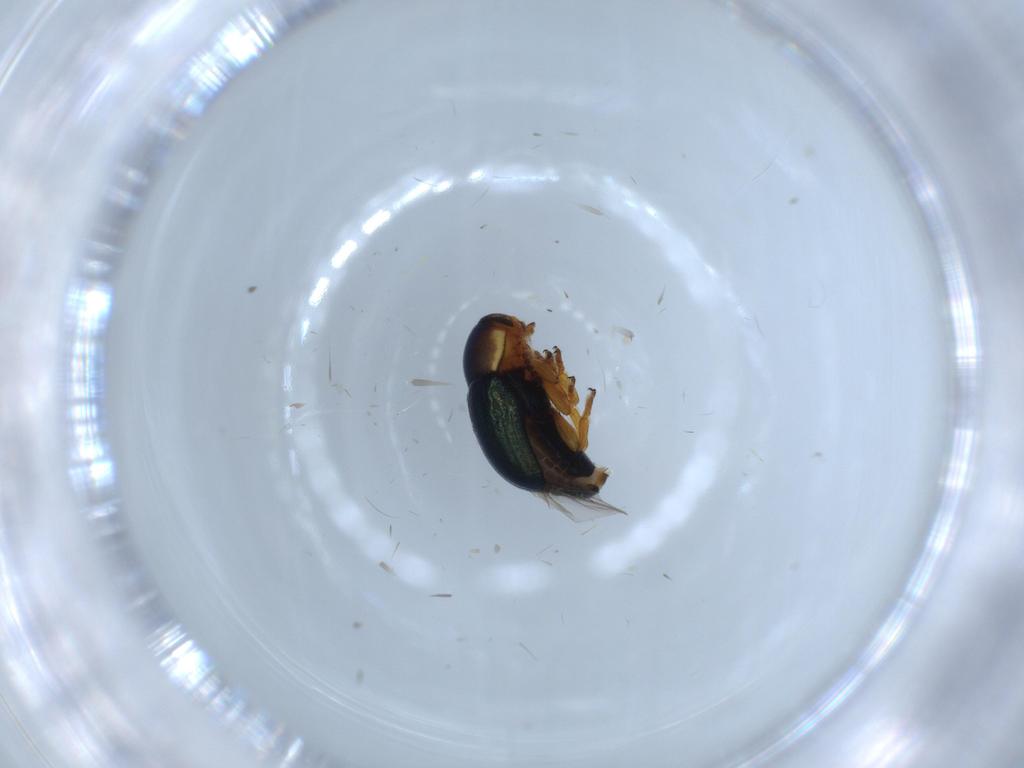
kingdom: Animalia
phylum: Arthropoda
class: Insecta
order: Coleoptera
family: Chrysomelidae
